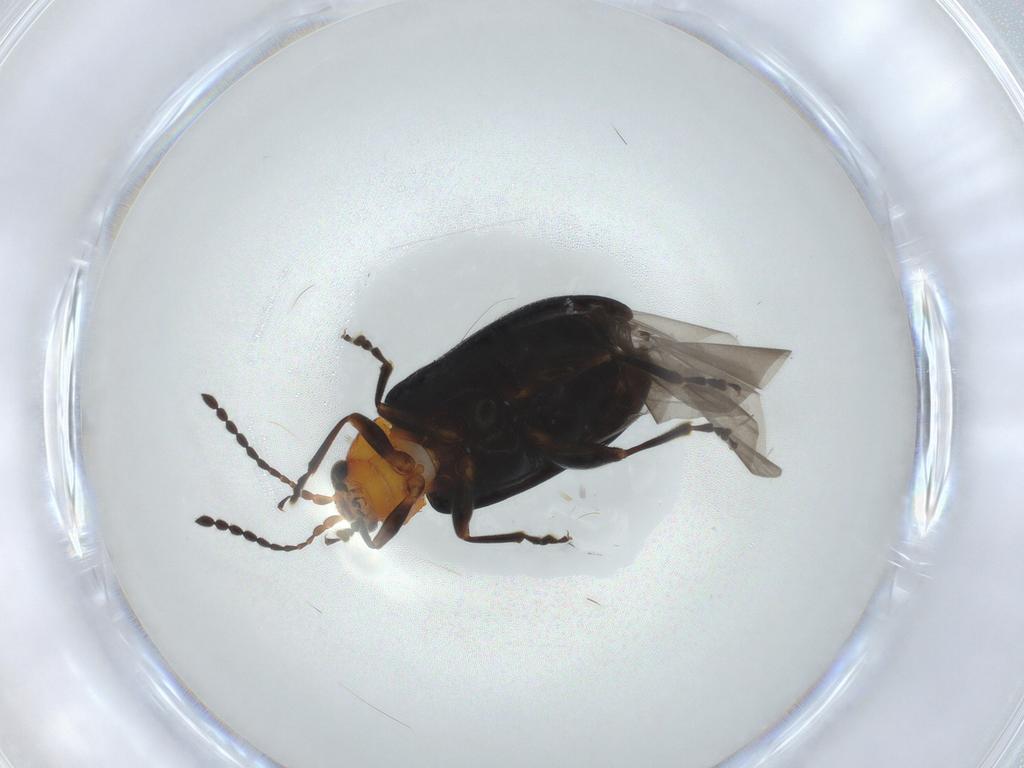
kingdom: Animalia
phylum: Arthropoda
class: Insecta
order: Coleoptera
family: Chrysomelidae
